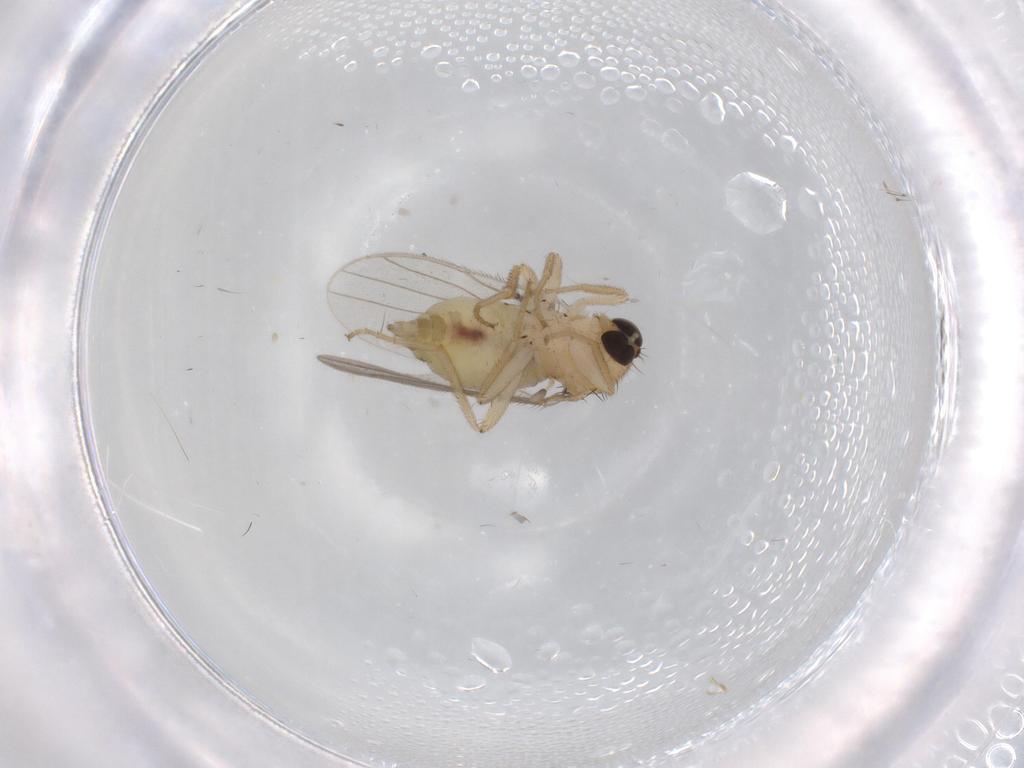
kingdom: Animalia
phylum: Arthropoda
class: Insecta
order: Diptera
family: Hybotidae
